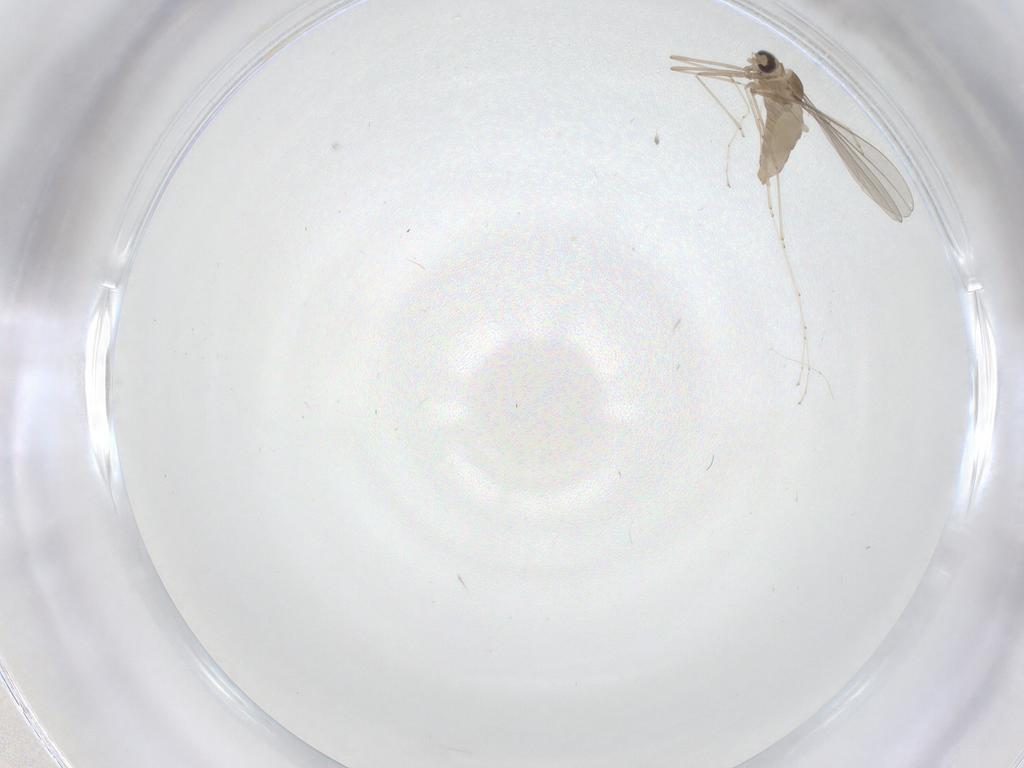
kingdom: Animalia
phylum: Arthropoda
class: Insecta
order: Diptera
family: Cecidomyiidae
